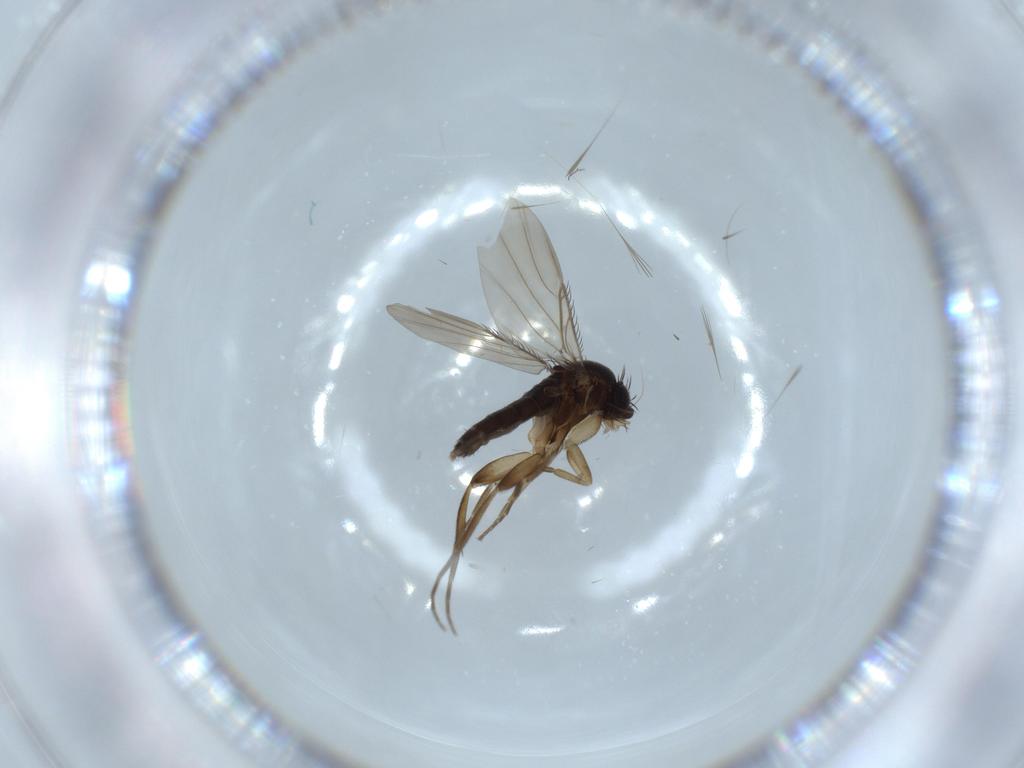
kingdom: Animalia
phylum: Arthropoda
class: Insecta
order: Diptera
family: Phoridae
